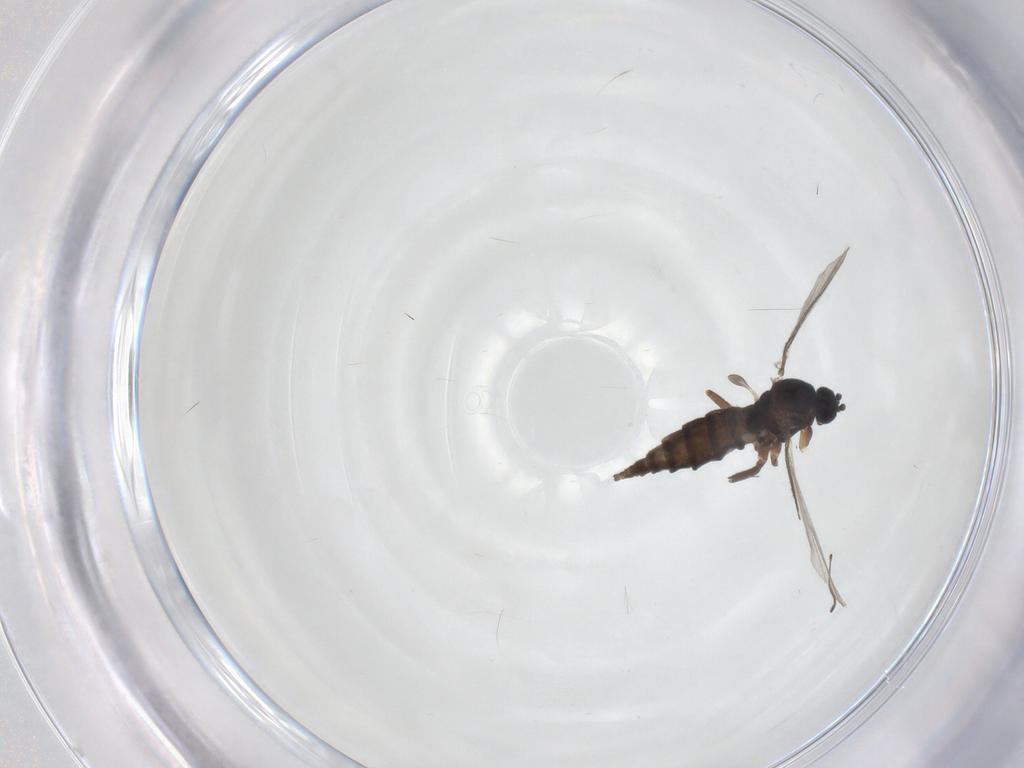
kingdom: Animalia
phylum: Arthropoda
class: Insecta
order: Diptera
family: Sciaridae
